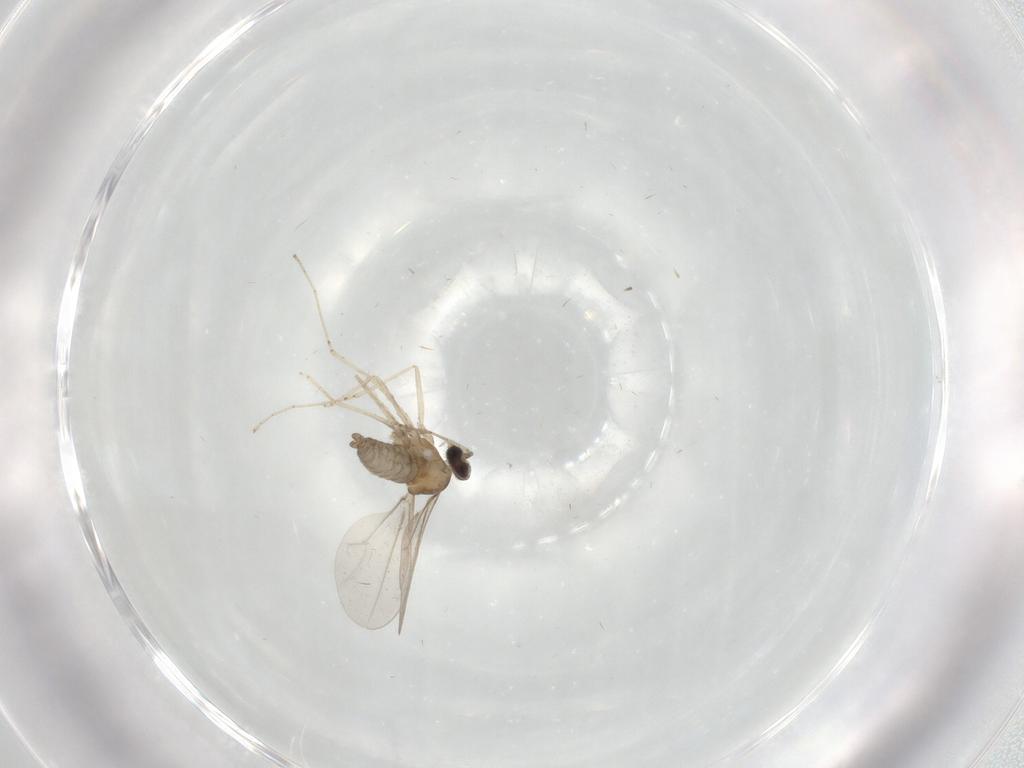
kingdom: Animalia
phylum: Arthropoda
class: Insecta
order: Diptera
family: Cecidomyiidae
